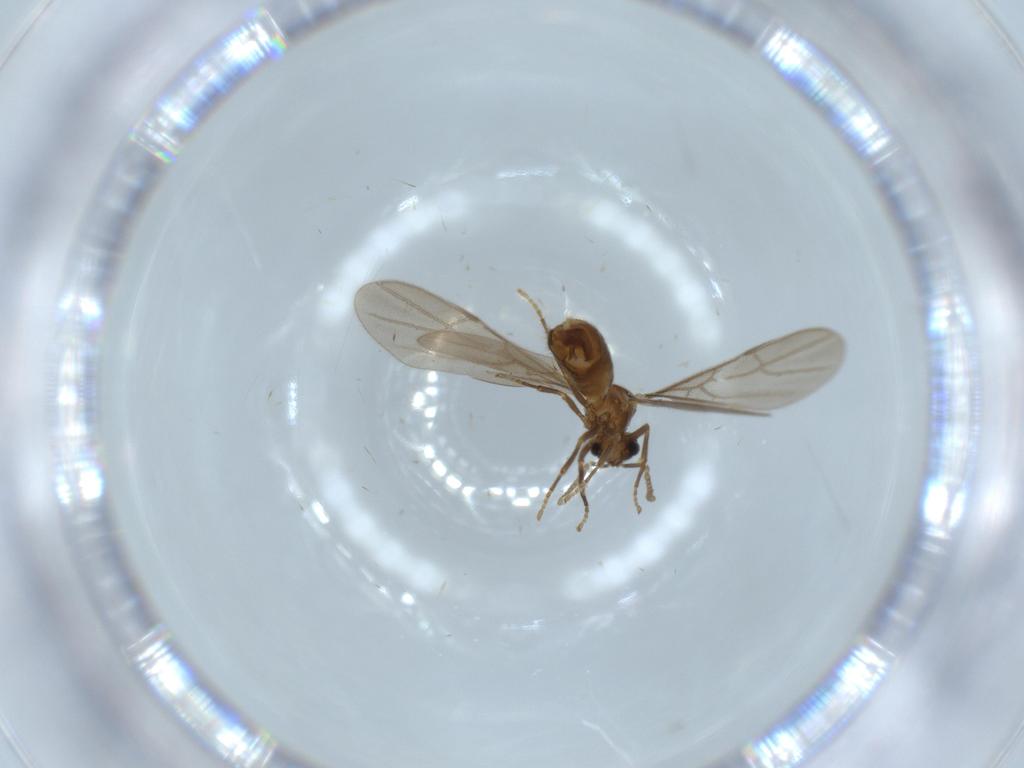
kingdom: Animalia
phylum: Arthropoda
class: Insecta
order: Hymenoptera
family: Formicidae
